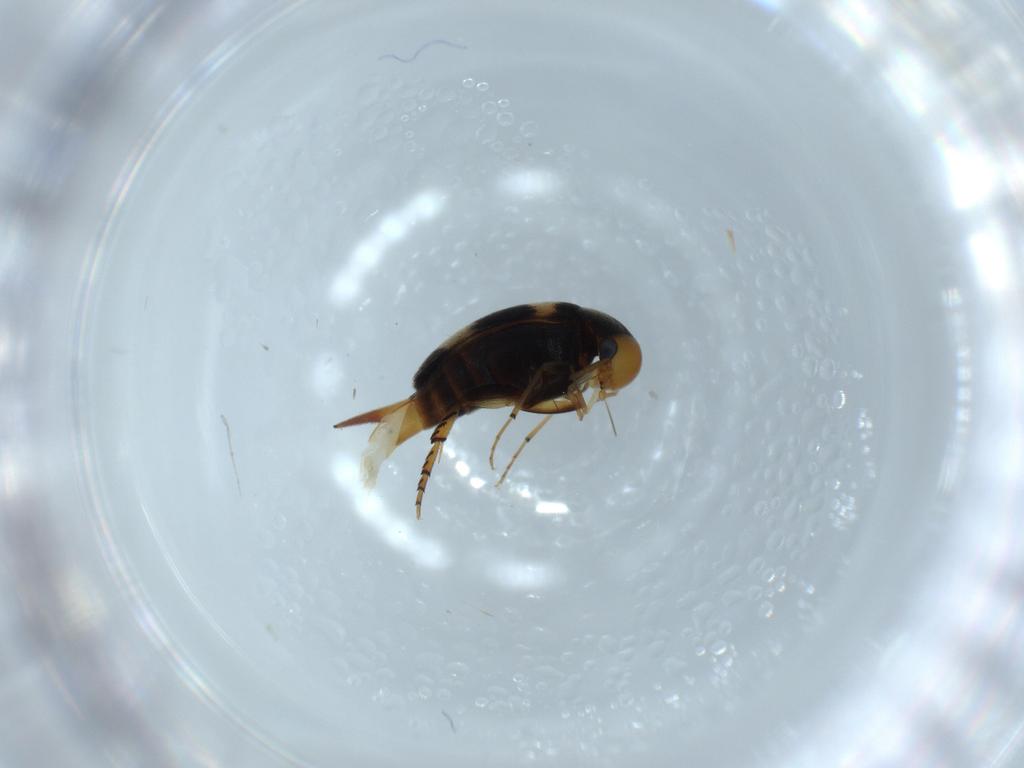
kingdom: Animalia
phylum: Arthropoda
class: Insecta
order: Coleoptera
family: Mordellidae
